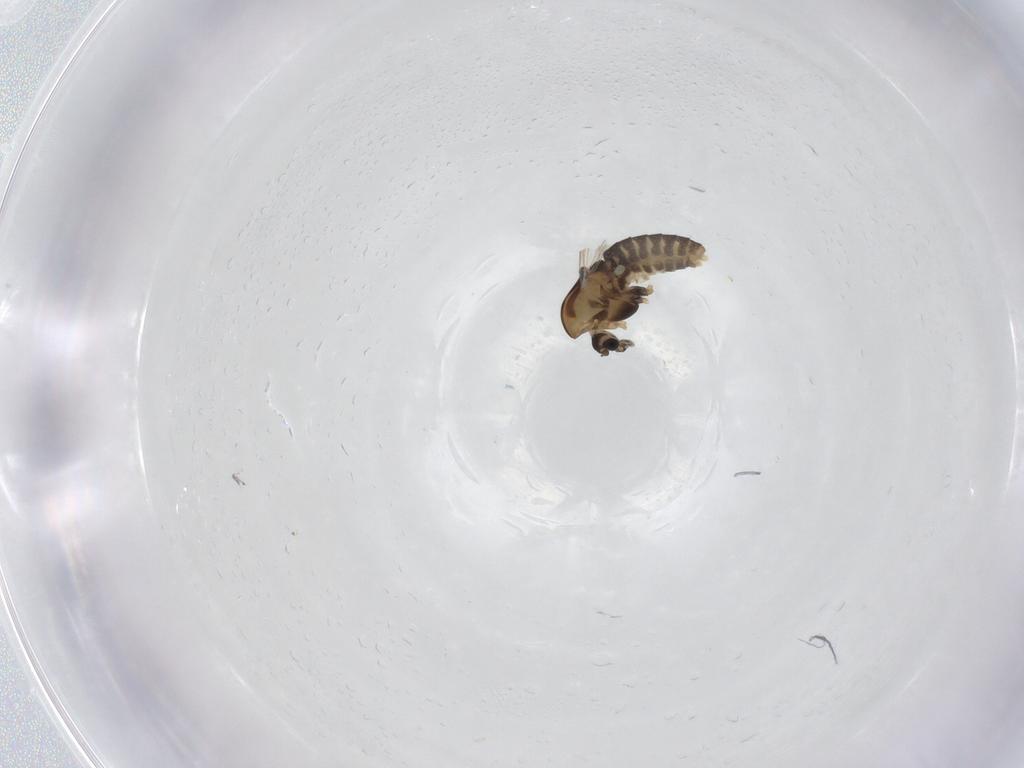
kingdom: Animalia
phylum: Arthropoda
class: Insecta
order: Diptera
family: Chironomidae
